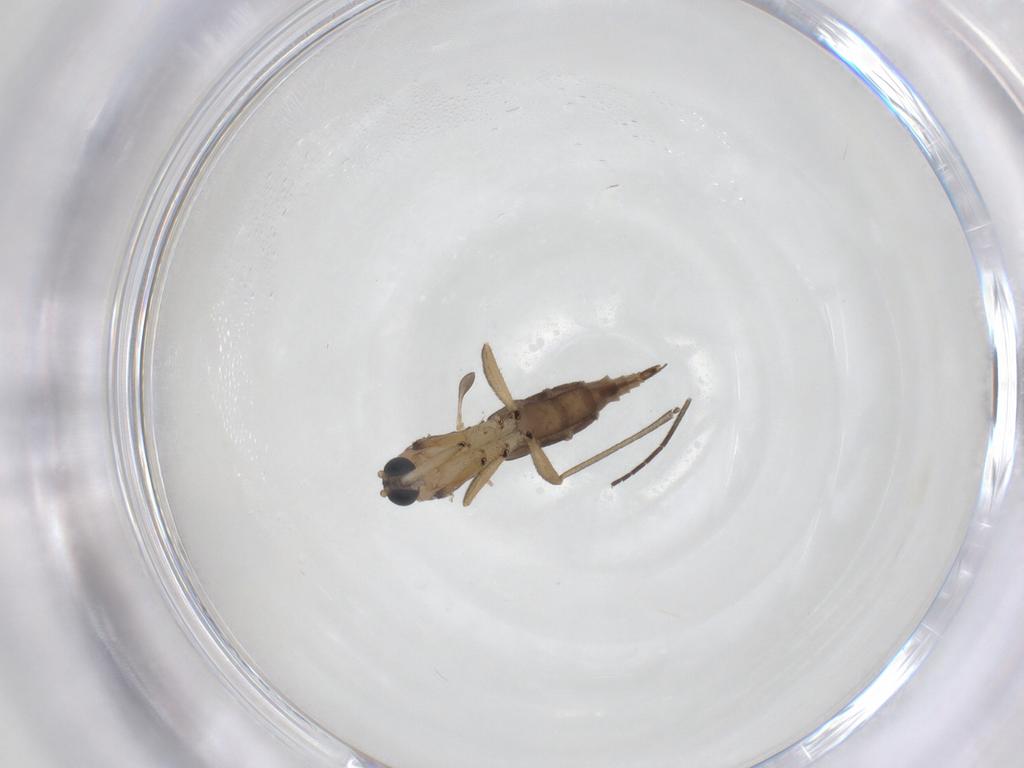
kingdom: Animalia
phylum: Arthropoda
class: Insecta
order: Diptera
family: Sciaridae
